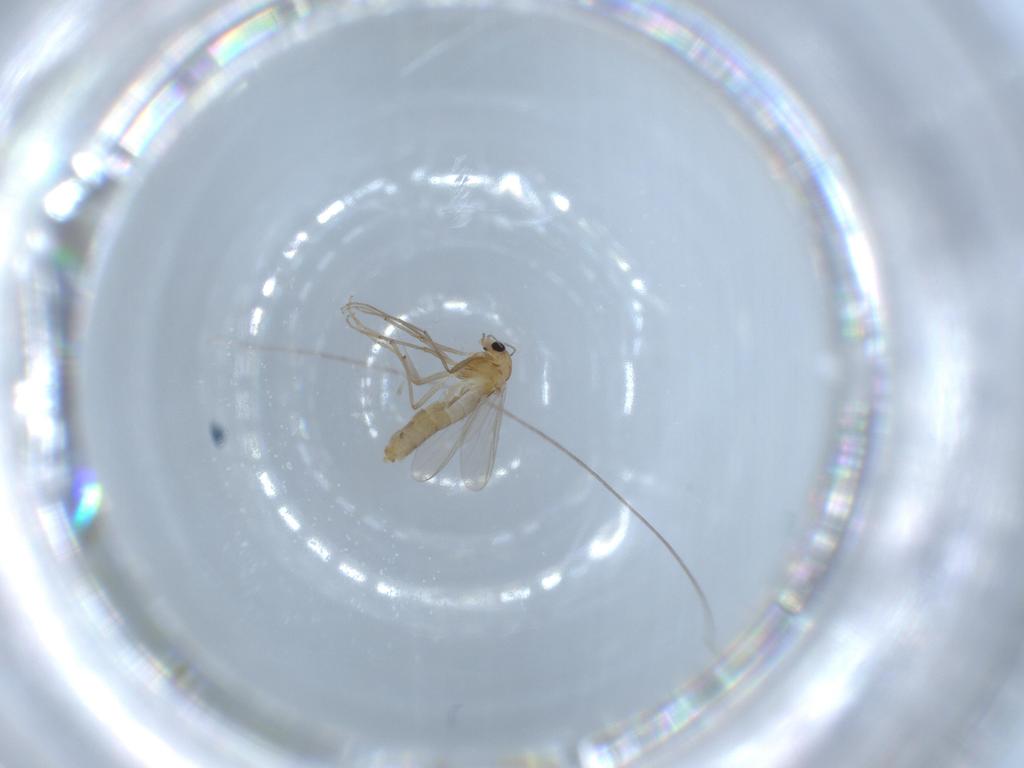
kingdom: Animalia
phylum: Arthropoda
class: Insecta
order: Diptera
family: Chironomidae
